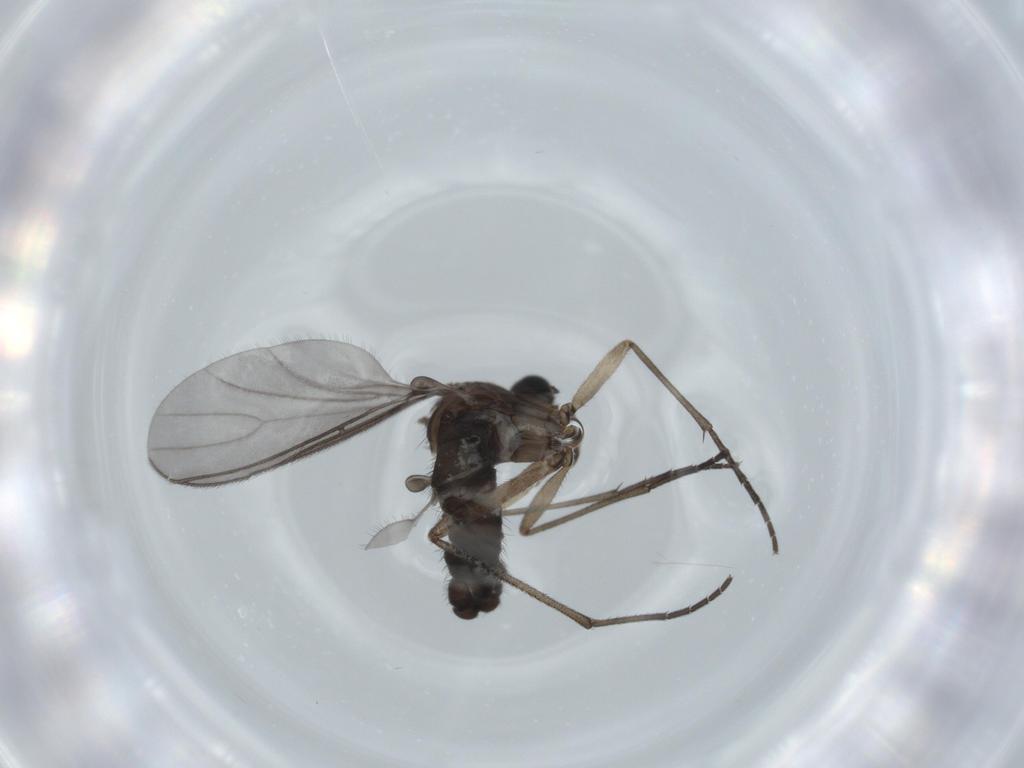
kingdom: Animalia
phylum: Arthropoda
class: Insecta
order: Diptera
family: Sciaridae
